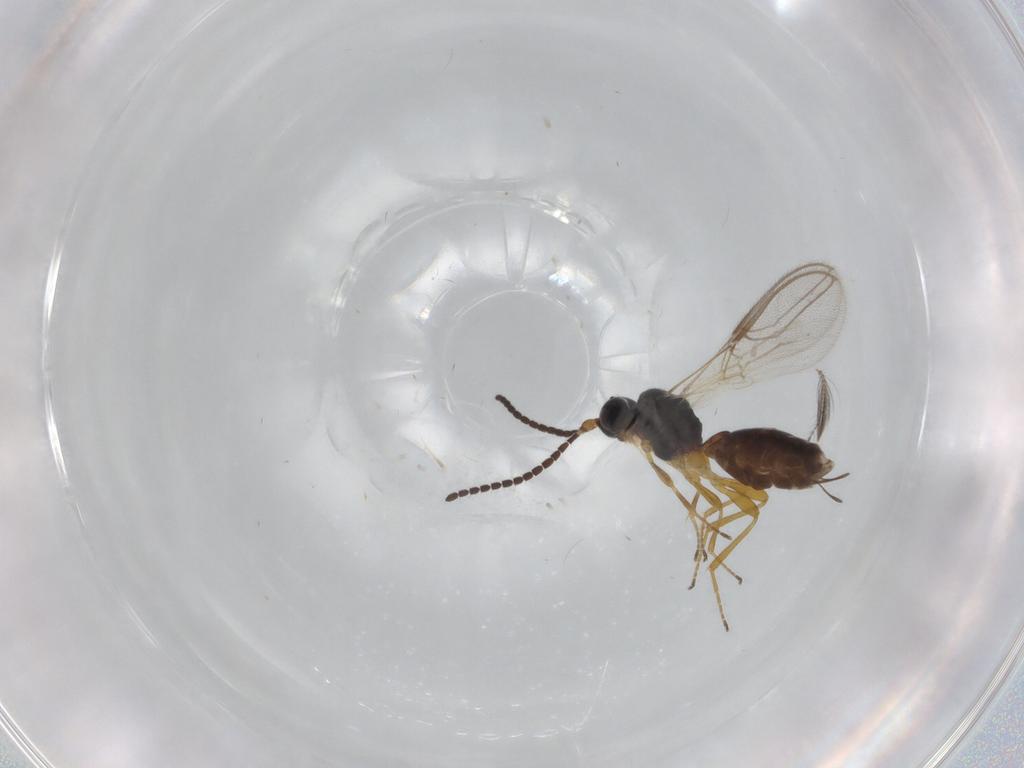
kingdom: Animalia
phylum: Arthropoda
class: Insecta
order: Hymenoptera
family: Braconidae
